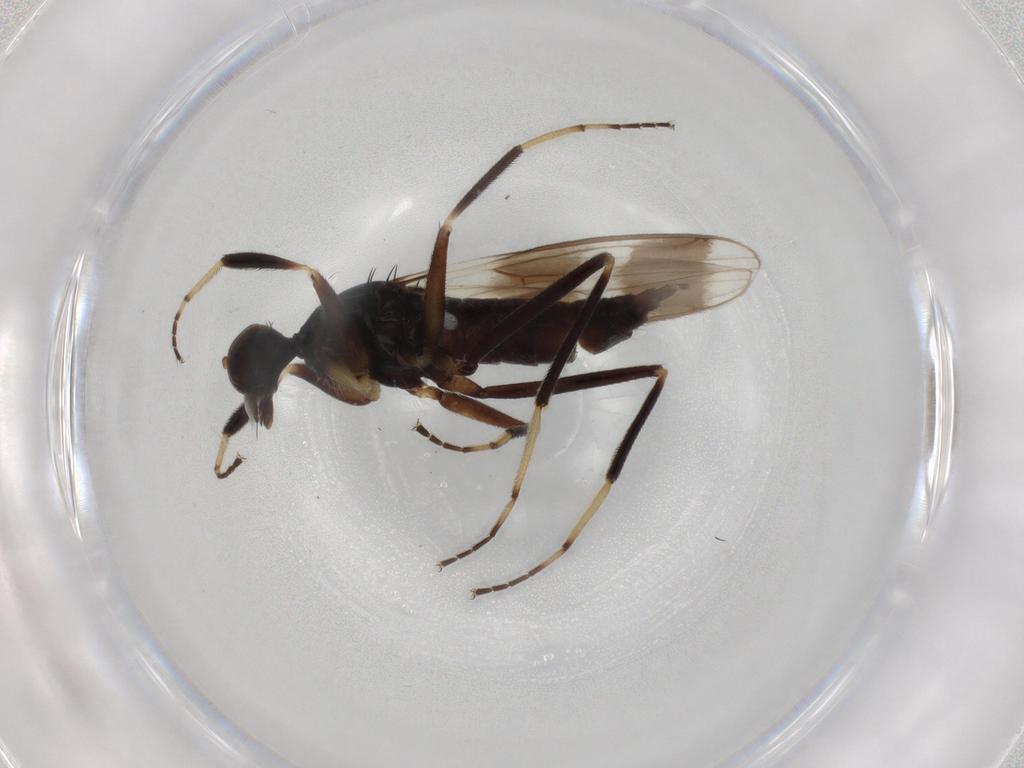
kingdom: Animalia
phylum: Arthropoda
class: Insecta
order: Diptera
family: Hybotidae
